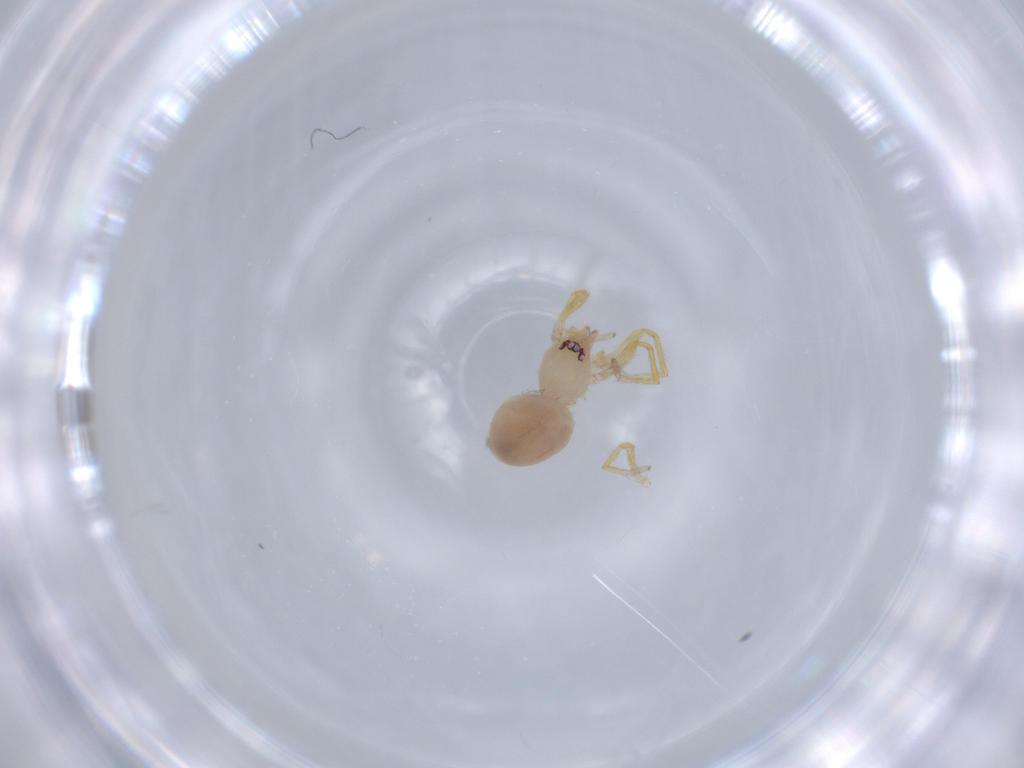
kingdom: Animalia
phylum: Arthropoda
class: Arachnida
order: Araneae
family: Oonopidae
